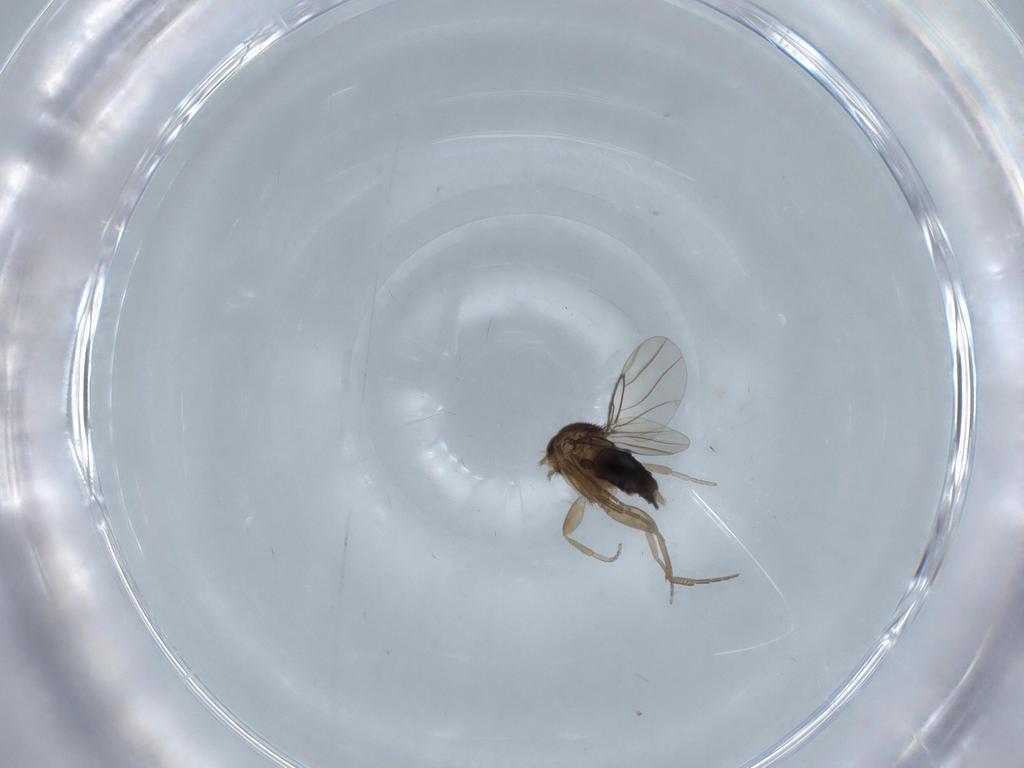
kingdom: Animalia
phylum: Arthropoda
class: Insecta
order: Diptera
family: Phoridae
